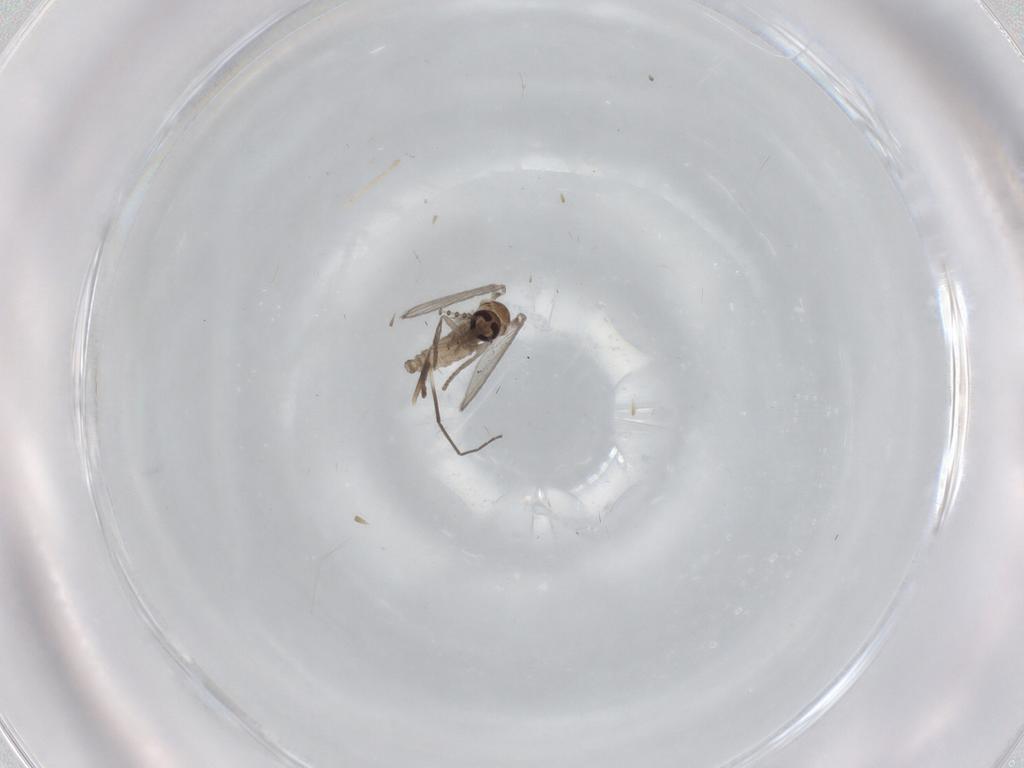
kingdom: Animalia
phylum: Arthropoda
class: Insecta
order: Diptera
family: Psychodidae
